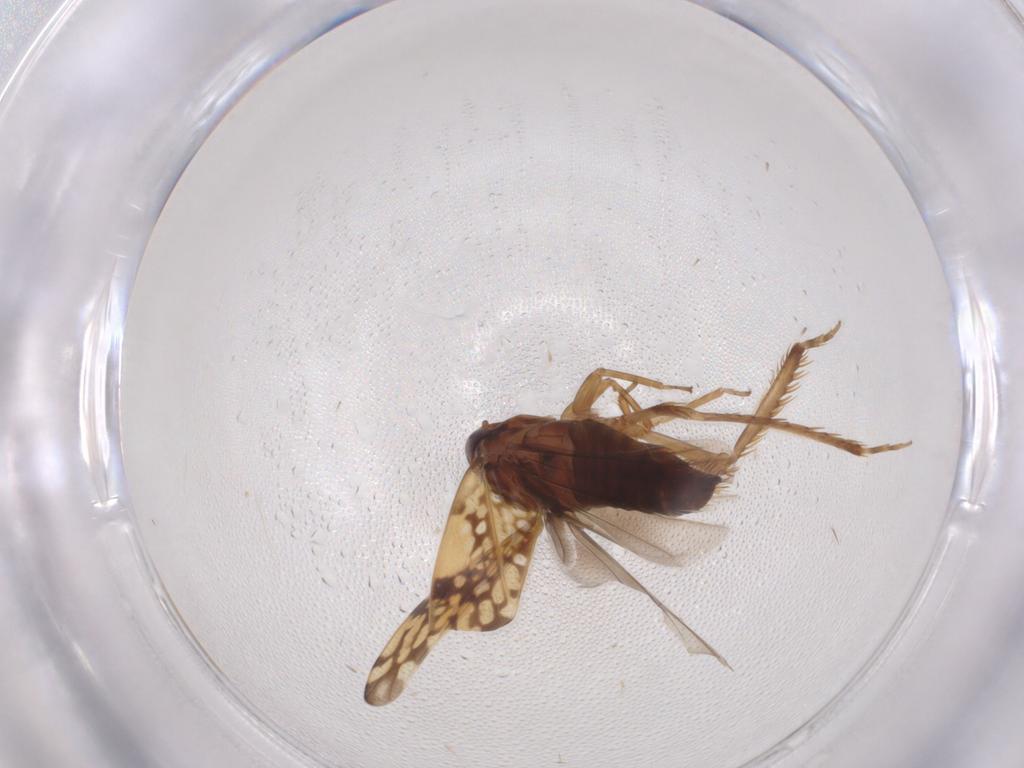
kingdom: Animalia
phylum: Arthropoda
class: Insecta
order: Hemiptera
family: Cicadellidae
